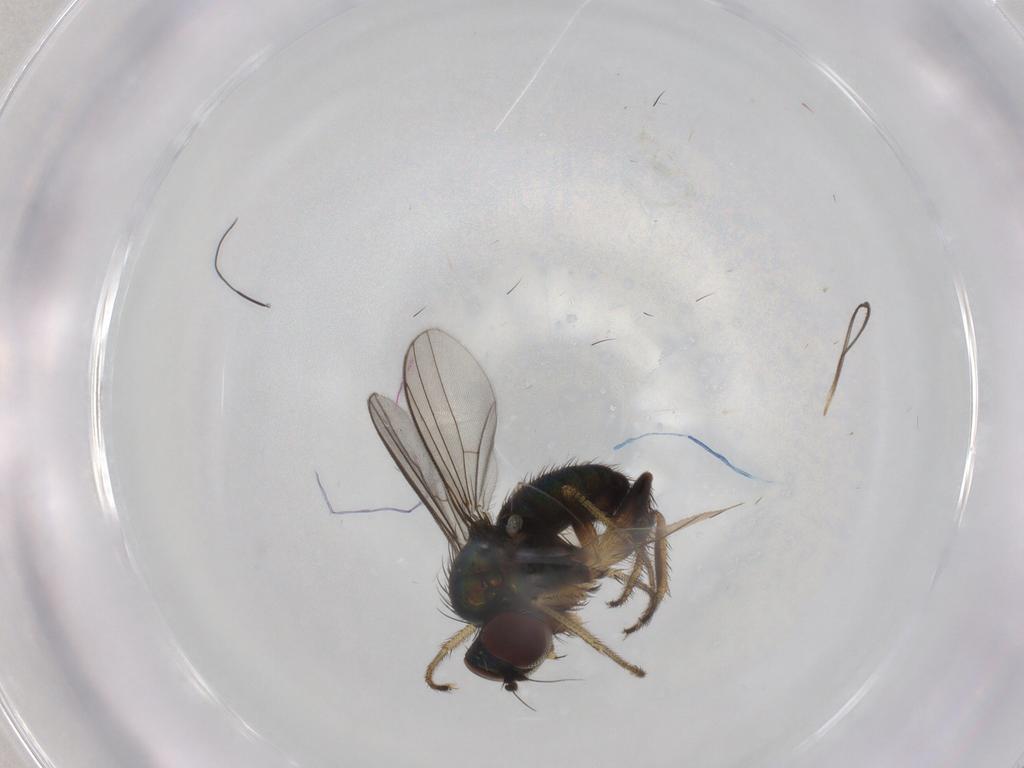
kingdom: Animalia
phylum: Arthropoda
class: Insecta
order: Diptera
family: Dolichopodidae
